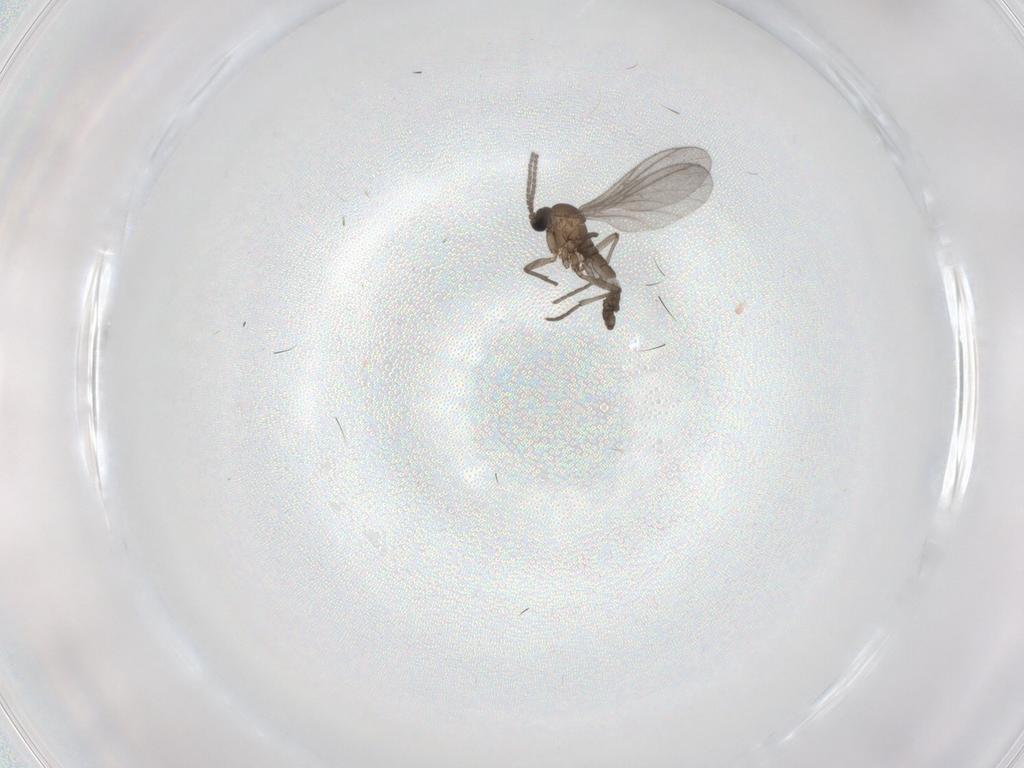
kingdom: Animalia
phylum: Arthropoda
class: Insecta
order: Diptera
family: Sciaridae
